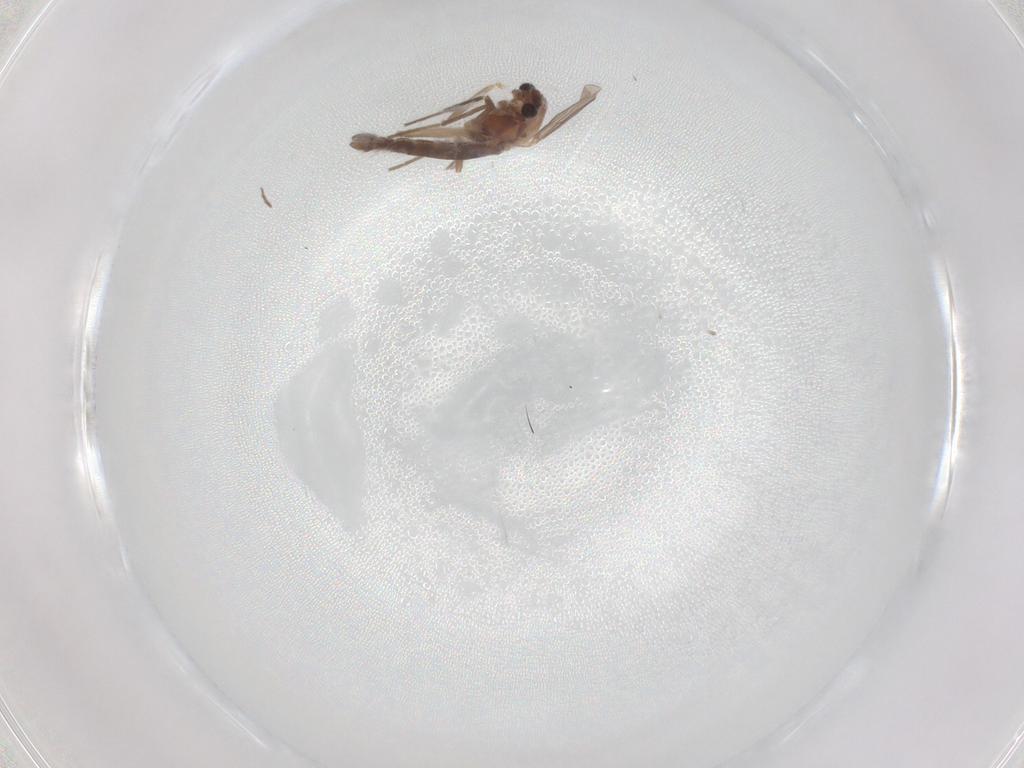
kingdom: Animalia
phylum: Arthropoda
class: Insecta
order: Diptera
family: Chironomidae
